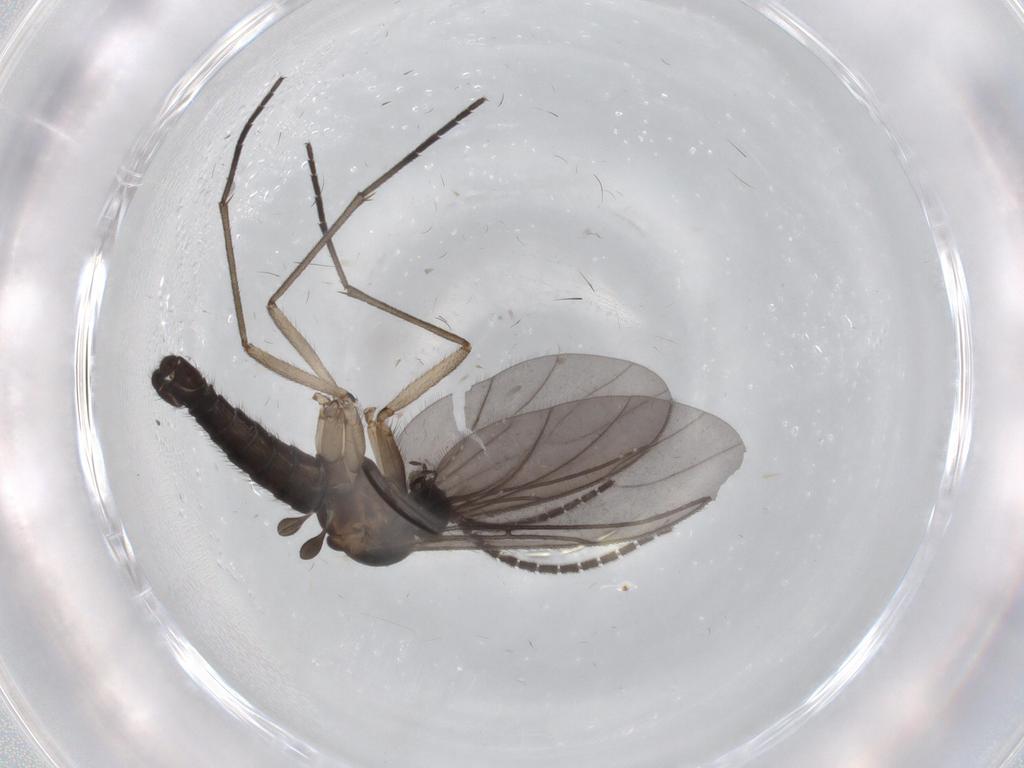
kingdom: Animalia
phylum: Arthropoda
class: Insecta
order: Diptera
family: Sciaridae
